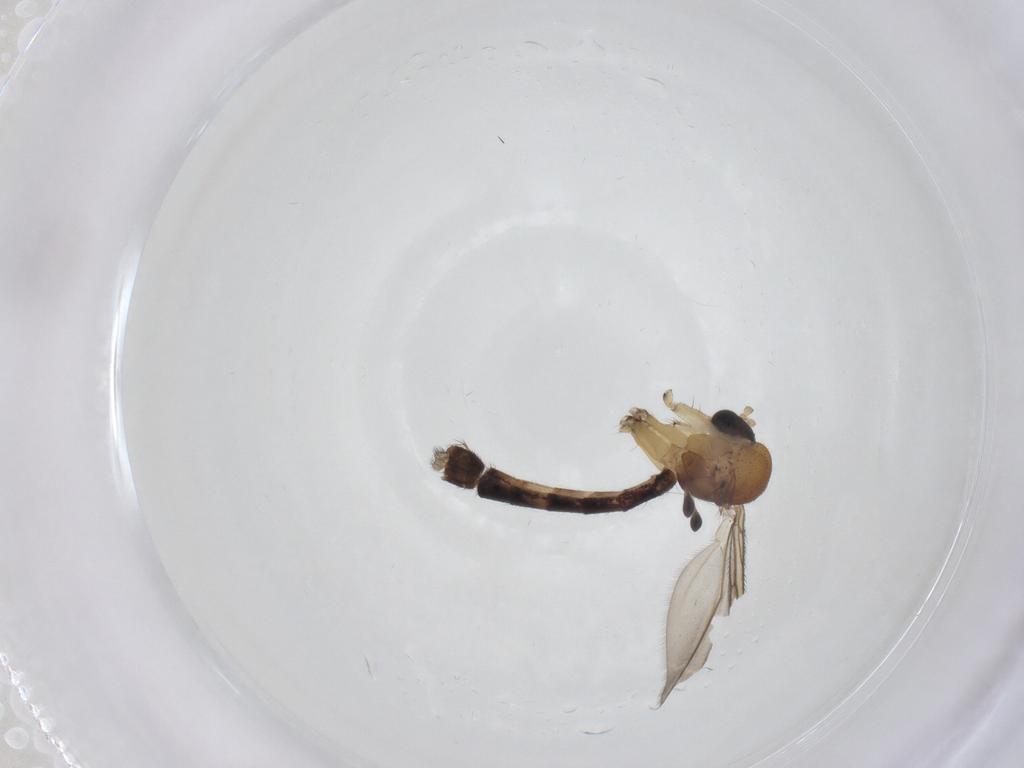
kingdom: Animalia
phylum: Arthropoda
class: Insecta
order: Diptera
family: Mycetophilidae
